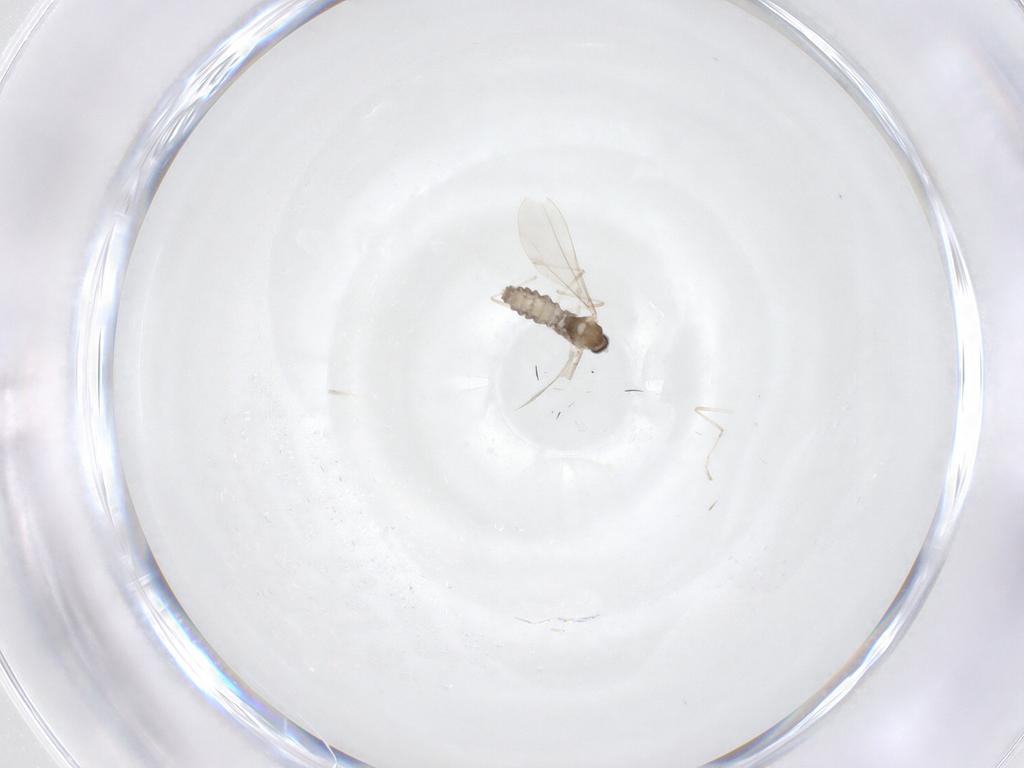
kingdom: Animalia
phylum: Arthropoda
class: Insecta
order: Diptera
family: Cecidomyiidae
